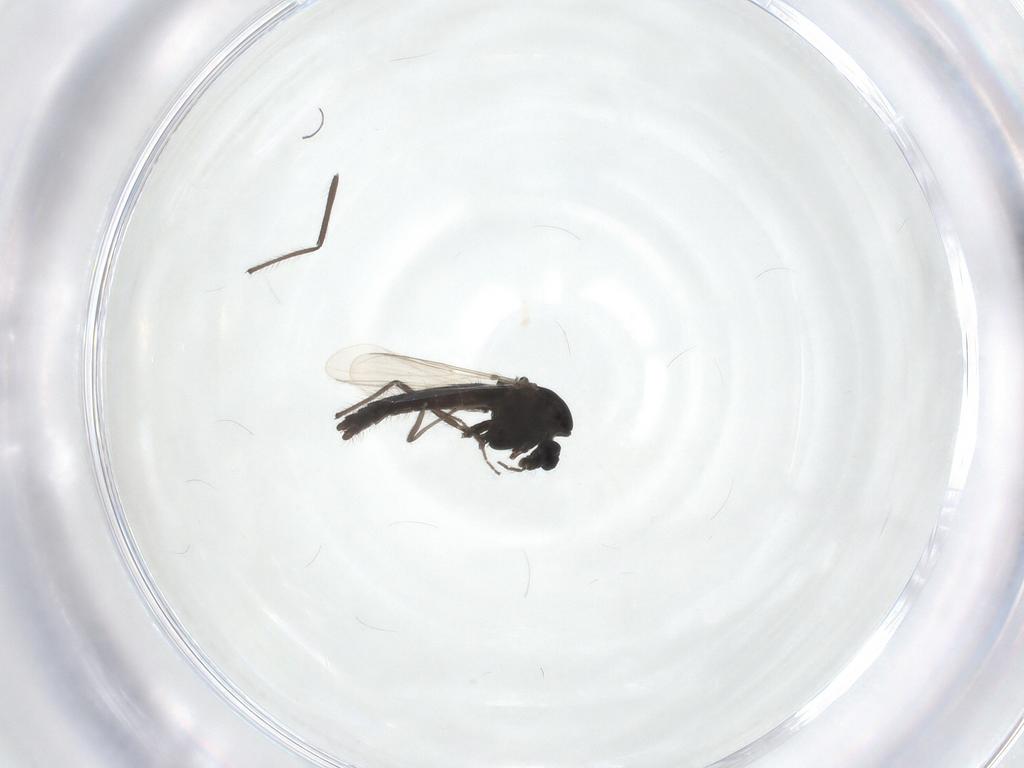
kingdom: Animalia
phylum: Arthropoda
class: Insecta
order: Diptera
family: Chironomidae
